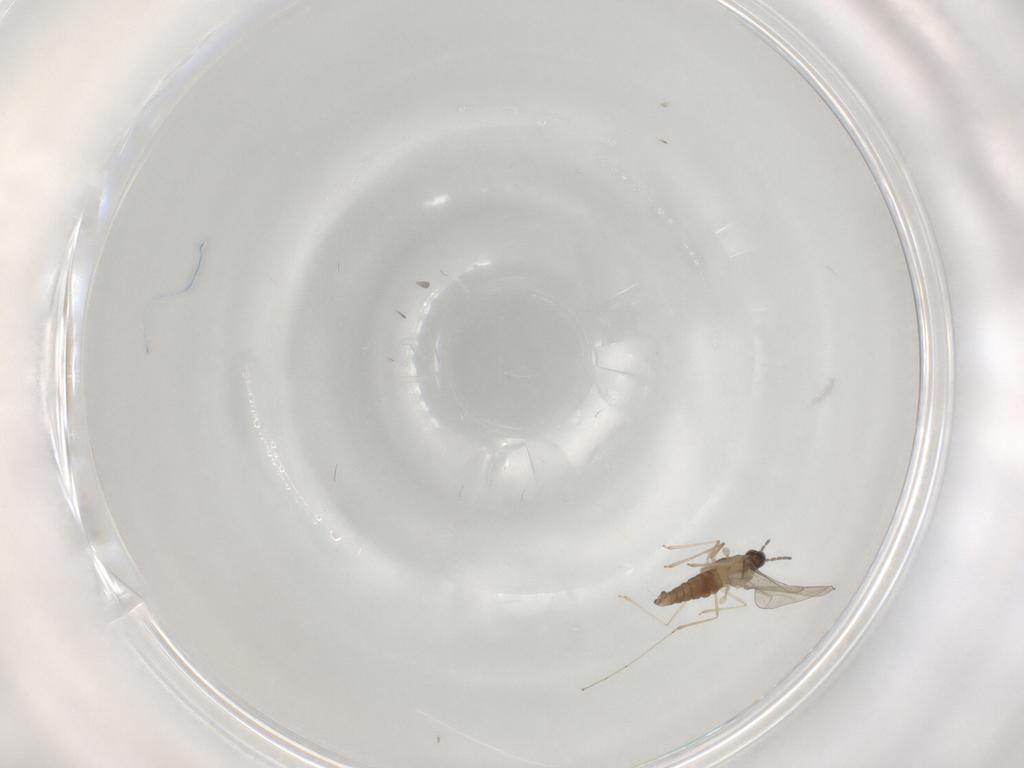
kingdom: Animalia
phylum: Arthropoda
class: Insecta
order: Diptera
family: Cecidomyiidae
